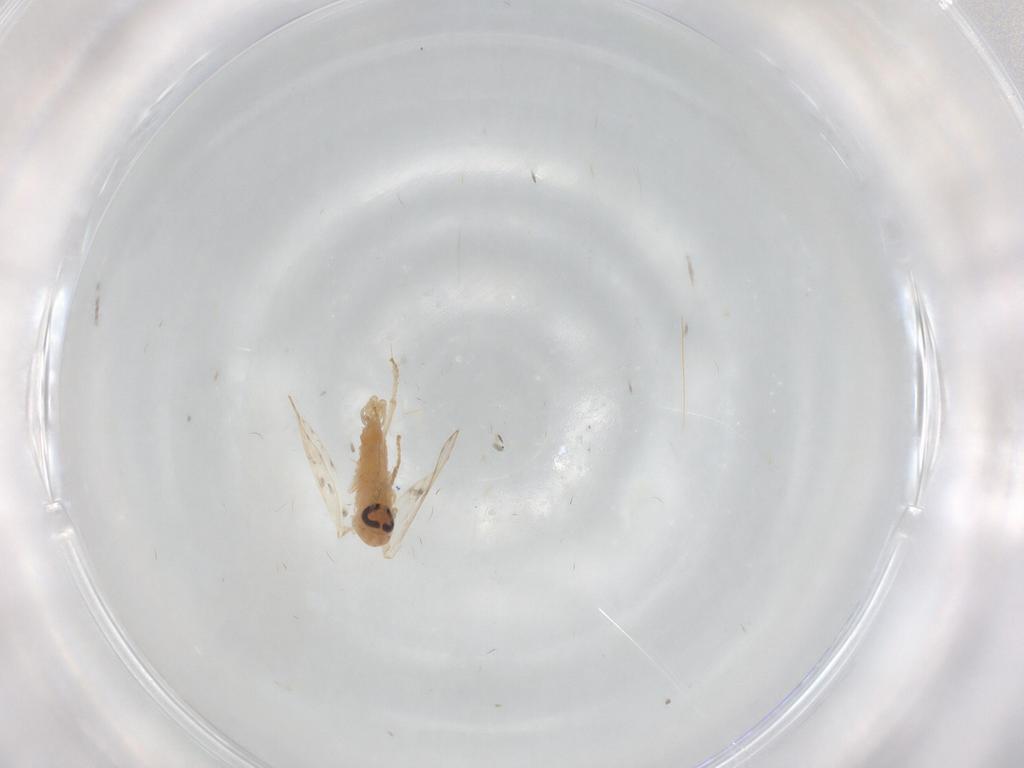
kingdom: Animalia
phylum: Arthropoda
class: Insecta
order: Diptera
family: Psychodidae
